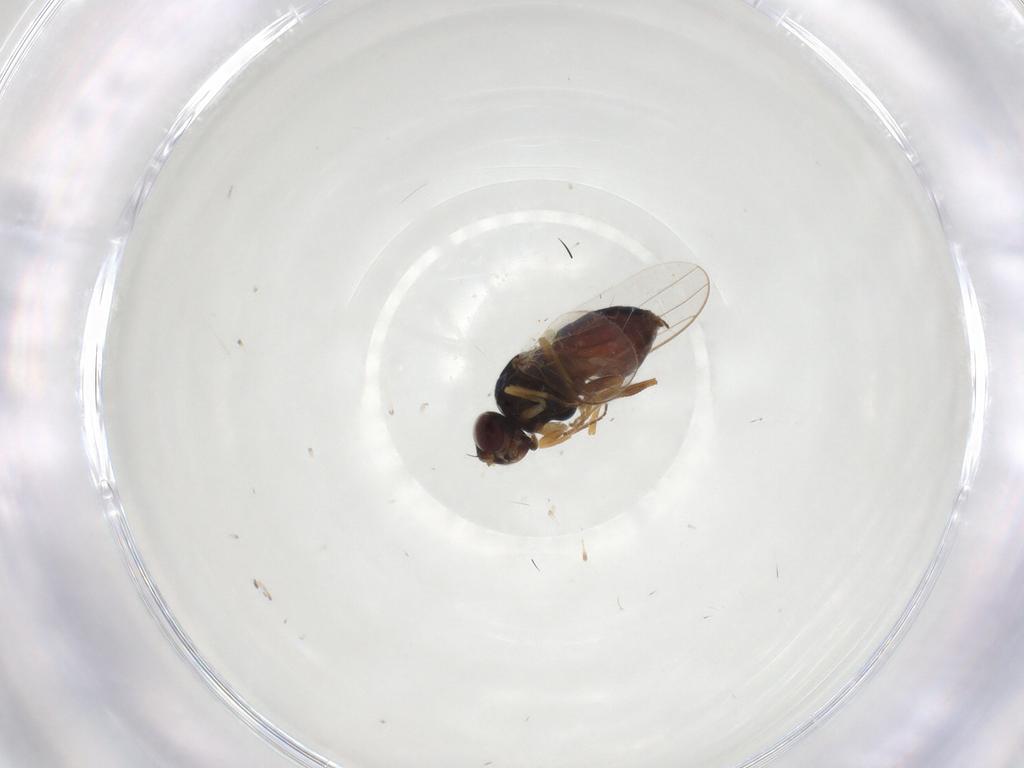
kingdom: Animalia
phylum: Arthropoda
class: Insecta
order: Diptera
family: Chloropidae
